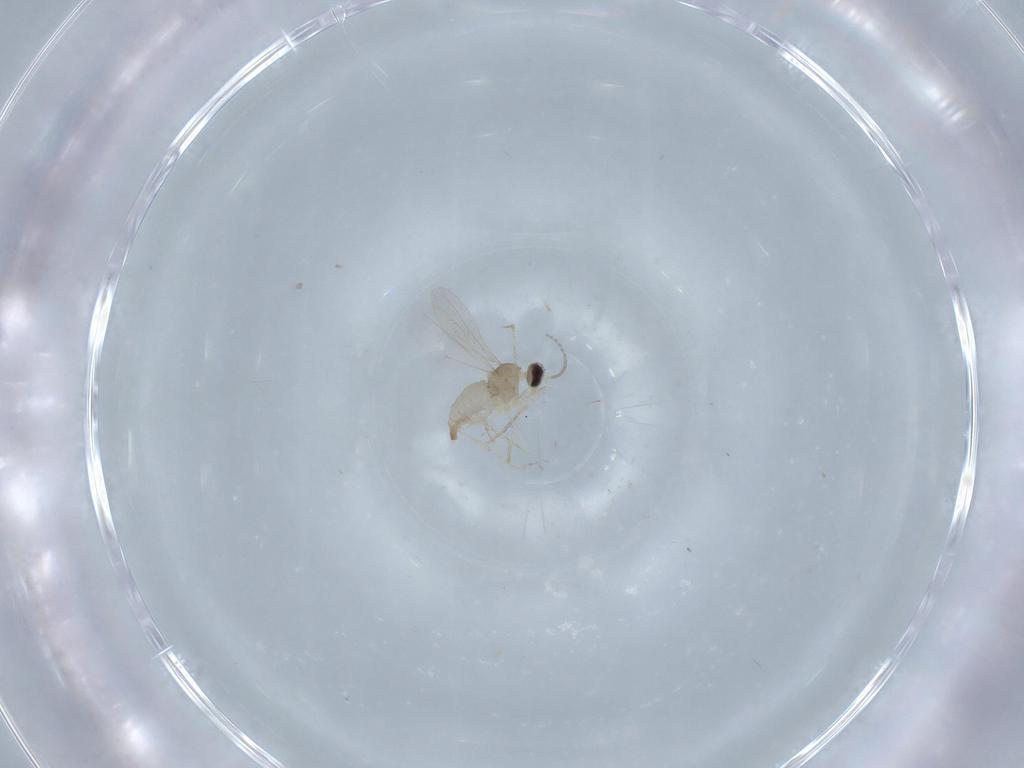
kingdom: Animalia
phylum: Arthropoda
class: Insecta
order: Diptera
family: Cecidomyiidae
